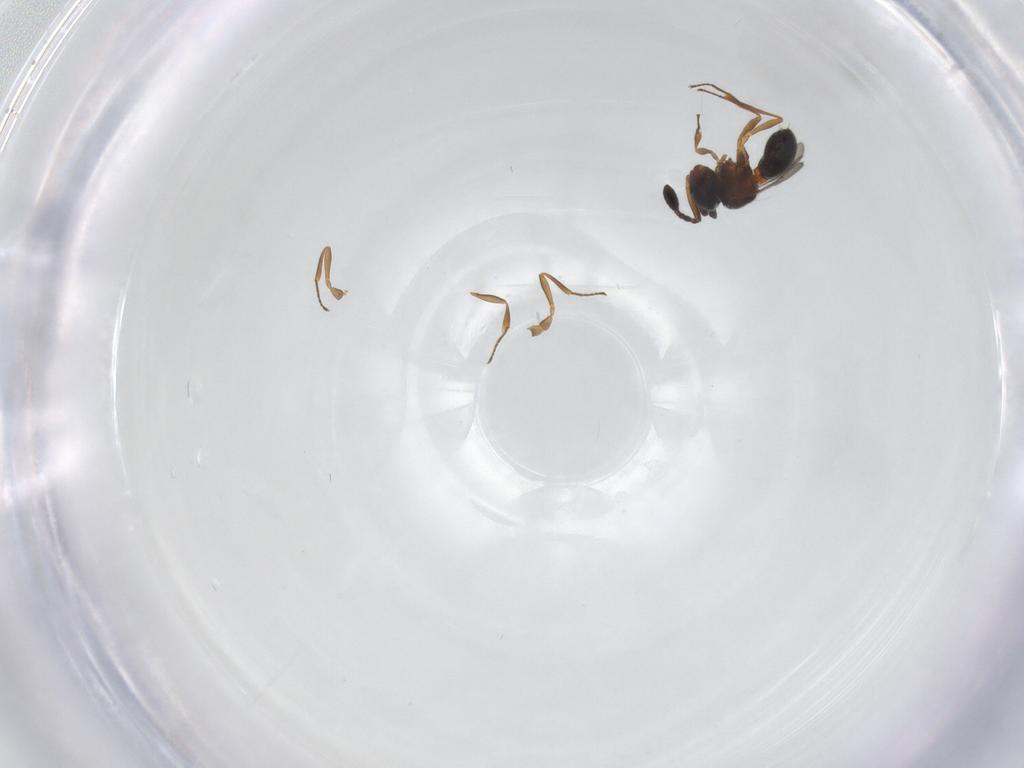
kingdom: Animalia
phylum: Arthropoda
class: Insecta
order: Hymenoptera
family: Scelionidae
